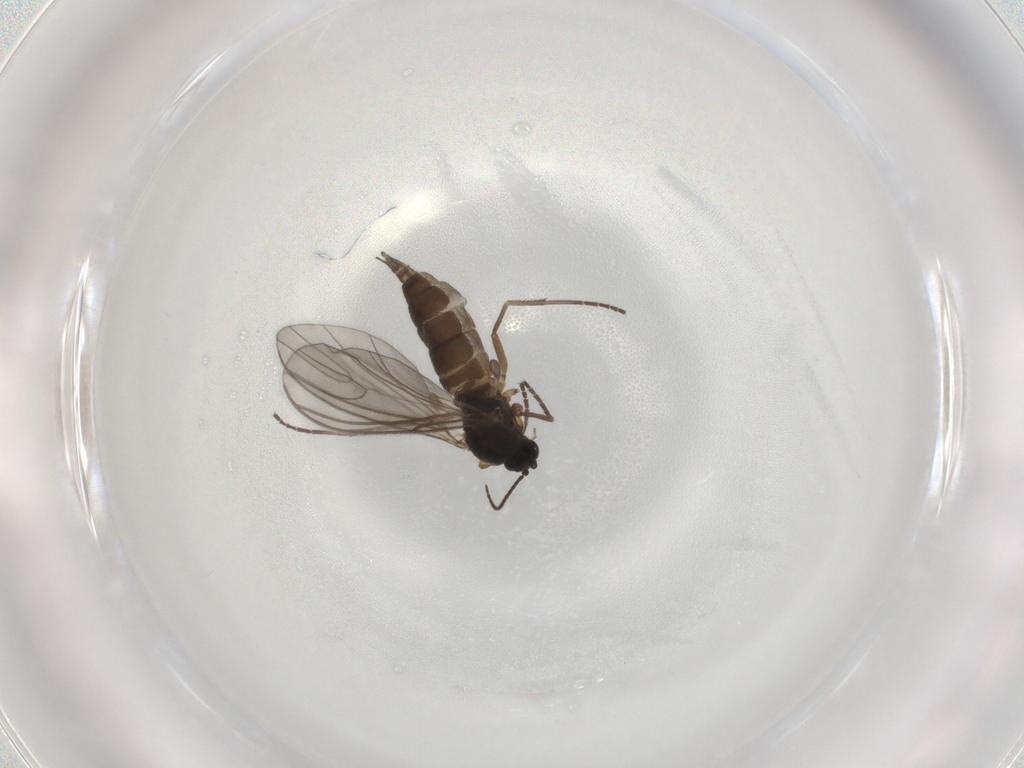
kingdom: Animalia
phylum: Arthropoda
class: Insecta
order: Diptera
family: Sciaridae
